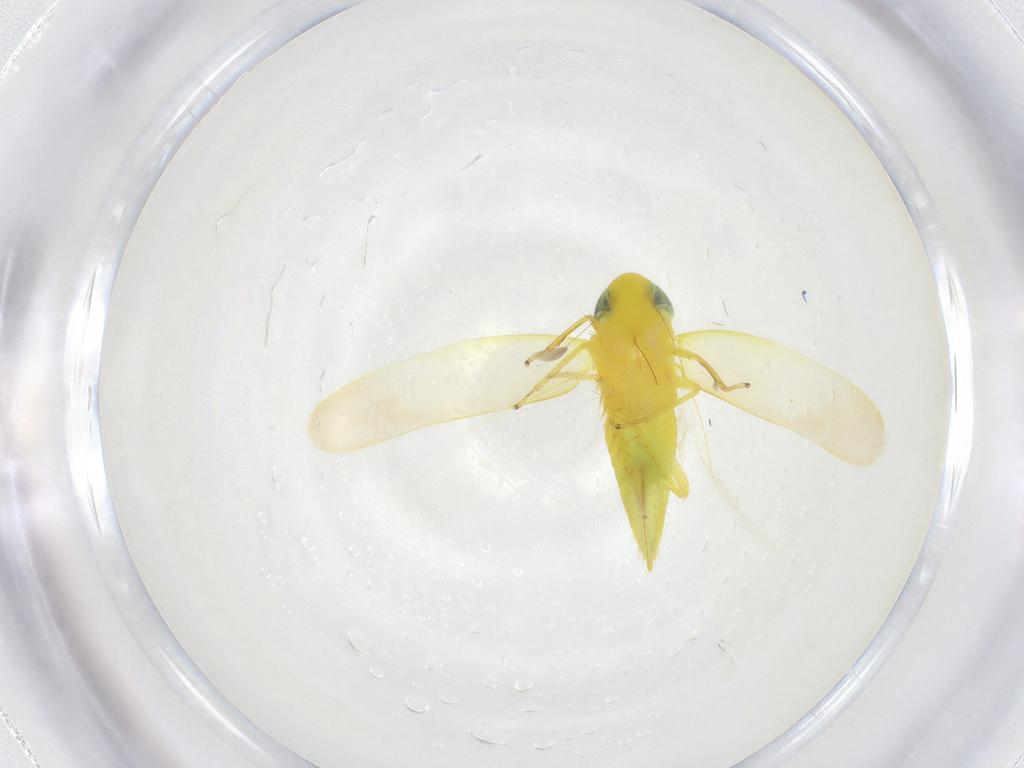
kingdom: Animalia
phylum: Arthropoda
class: Insecta
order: Hemiptera
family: Cicadellidae
